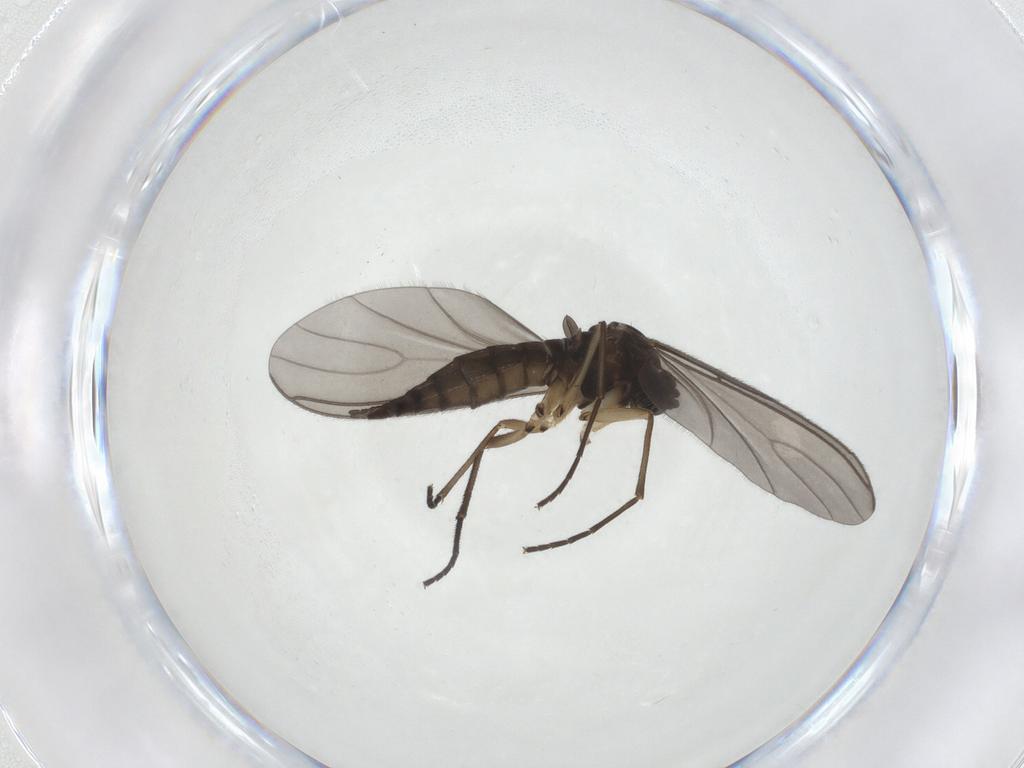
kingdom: Animalia
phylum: Arthropoda
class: Insecta
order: Diptera
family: Sciaridae
